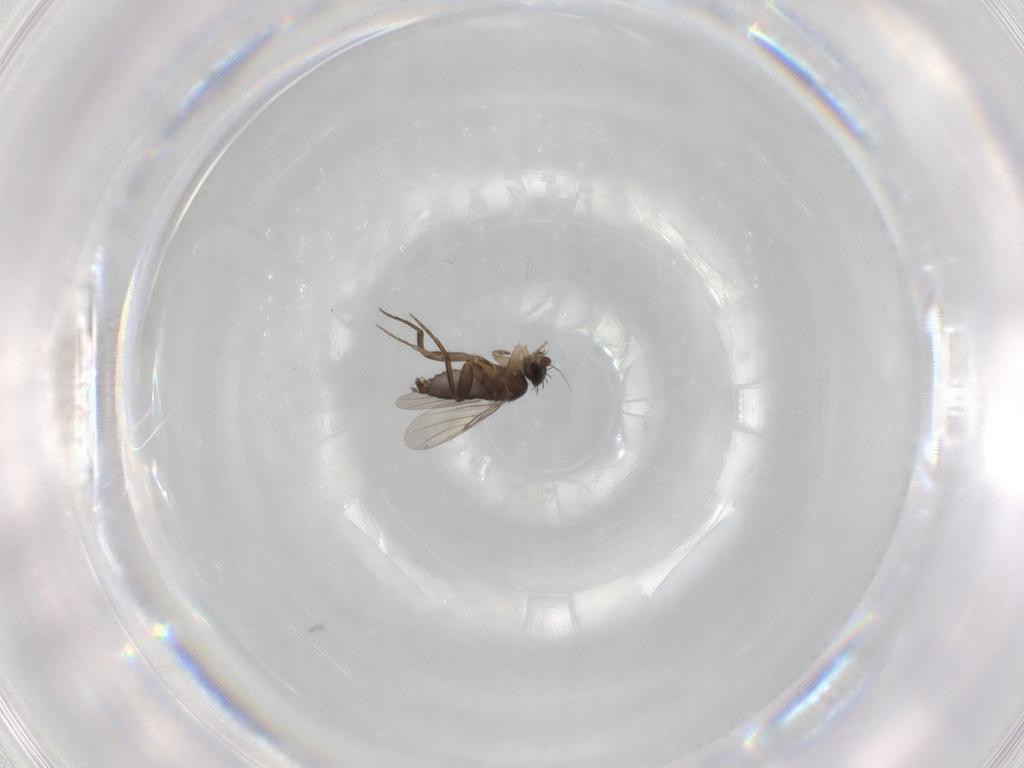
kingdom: Animalia
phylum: Arthropoda
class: Insecta
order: Diptera
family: Phoridae
